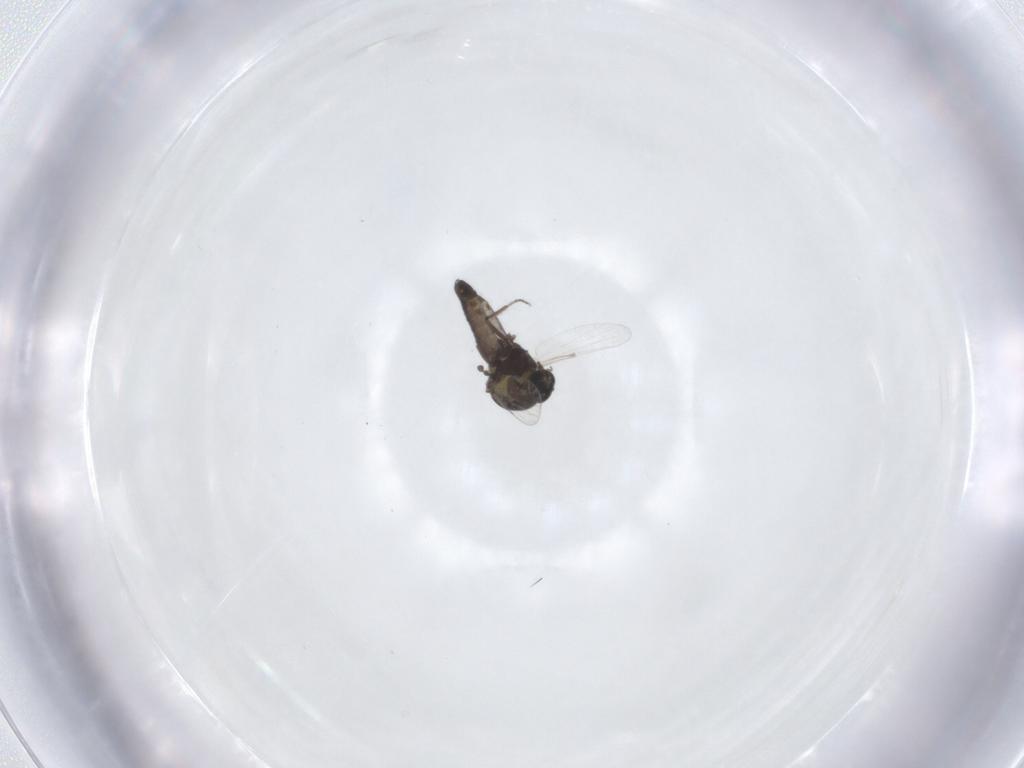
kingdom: Animalia
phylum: Arthropoda
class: Insecta
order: Diptera
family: Ceratopogonidae
